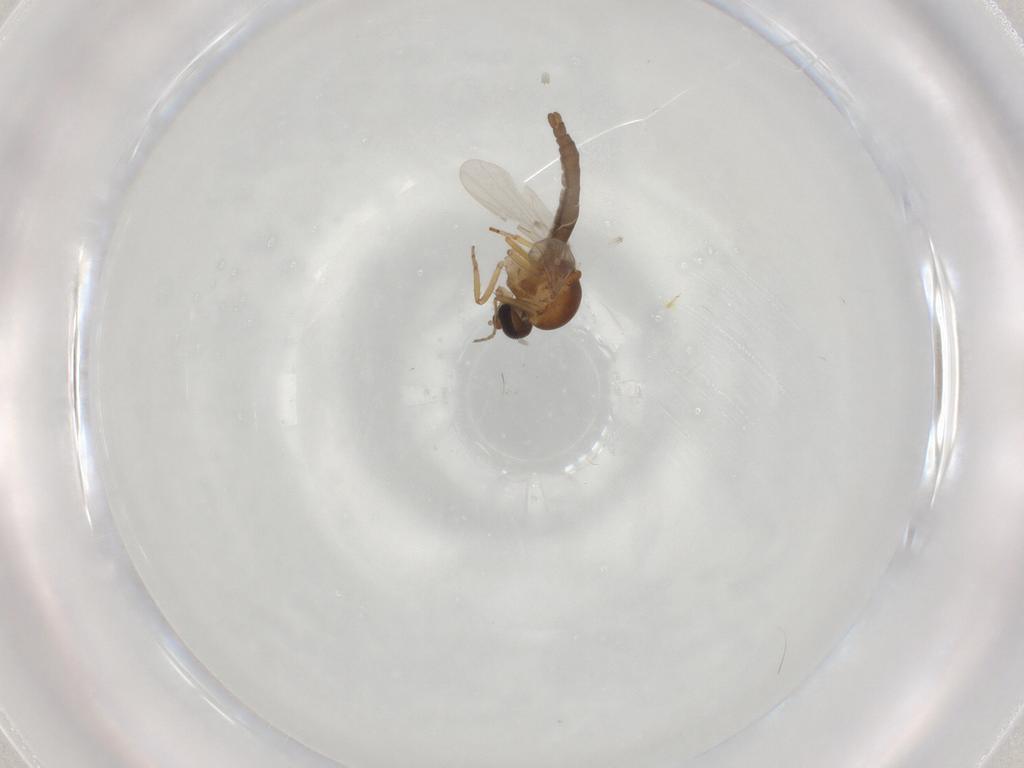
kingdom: Animalia
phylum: Arthropoda
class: Insecta
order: Diptera
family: Ceratopogonidae
